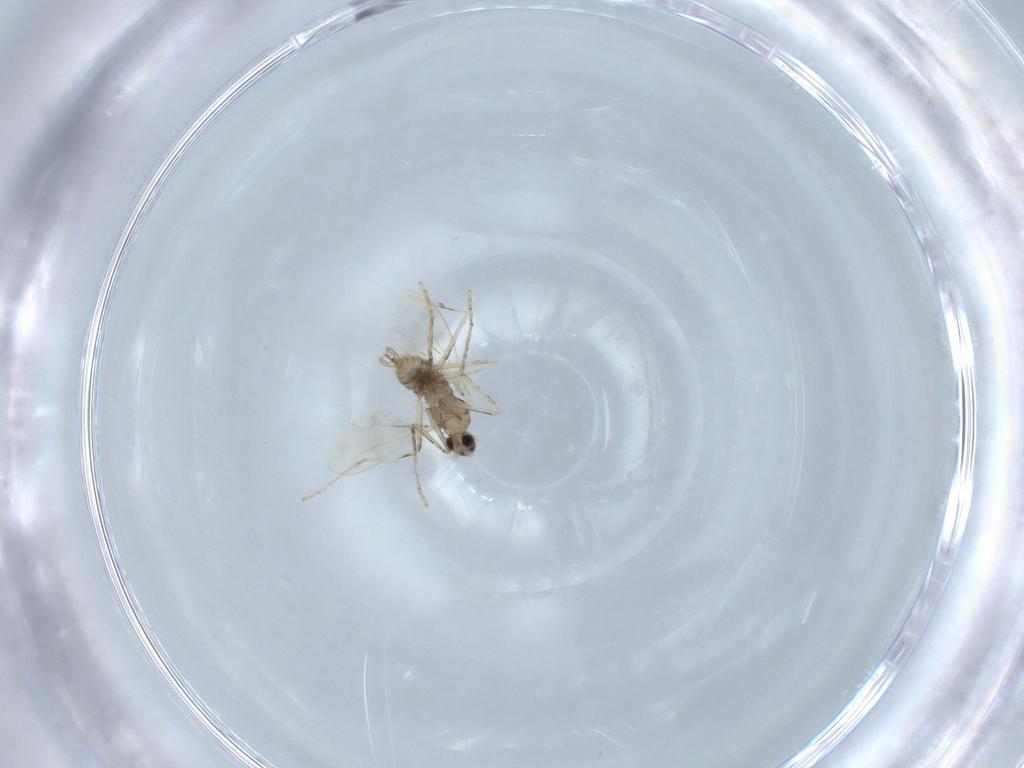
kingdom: Animalia
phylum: Arthropoda
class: Insecta
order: Diptera
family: Cecidomyiidae
